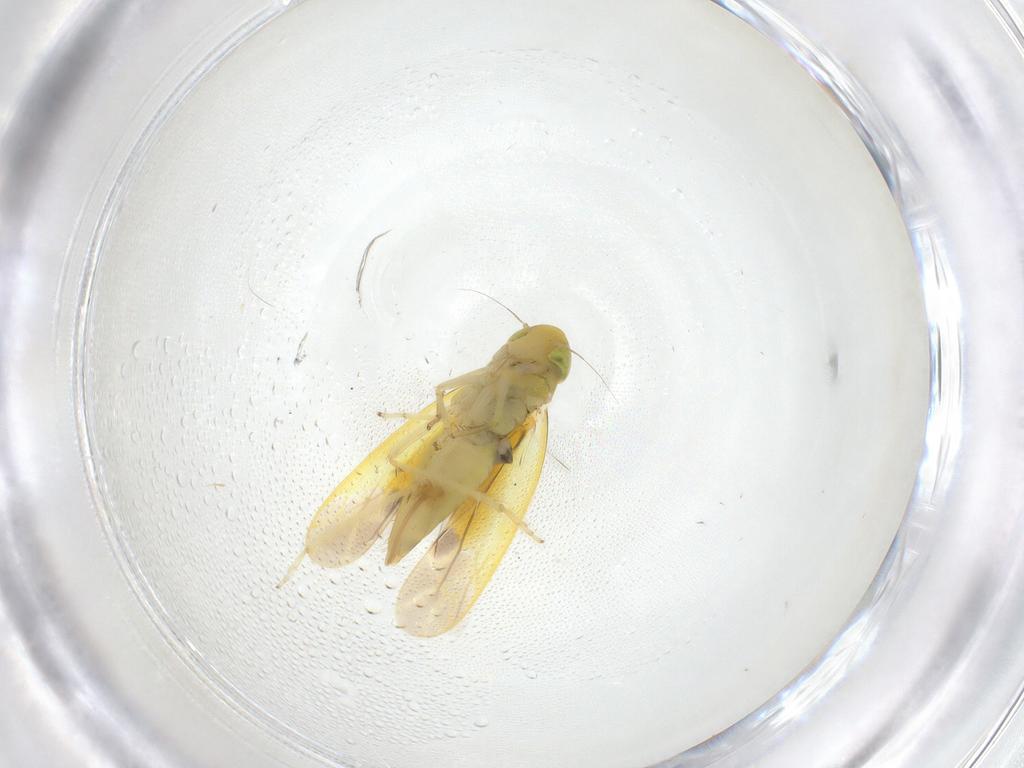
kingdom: Animalia
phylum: Arthropoda
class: Insecta
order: Hemiptera
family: Cicadellidae
